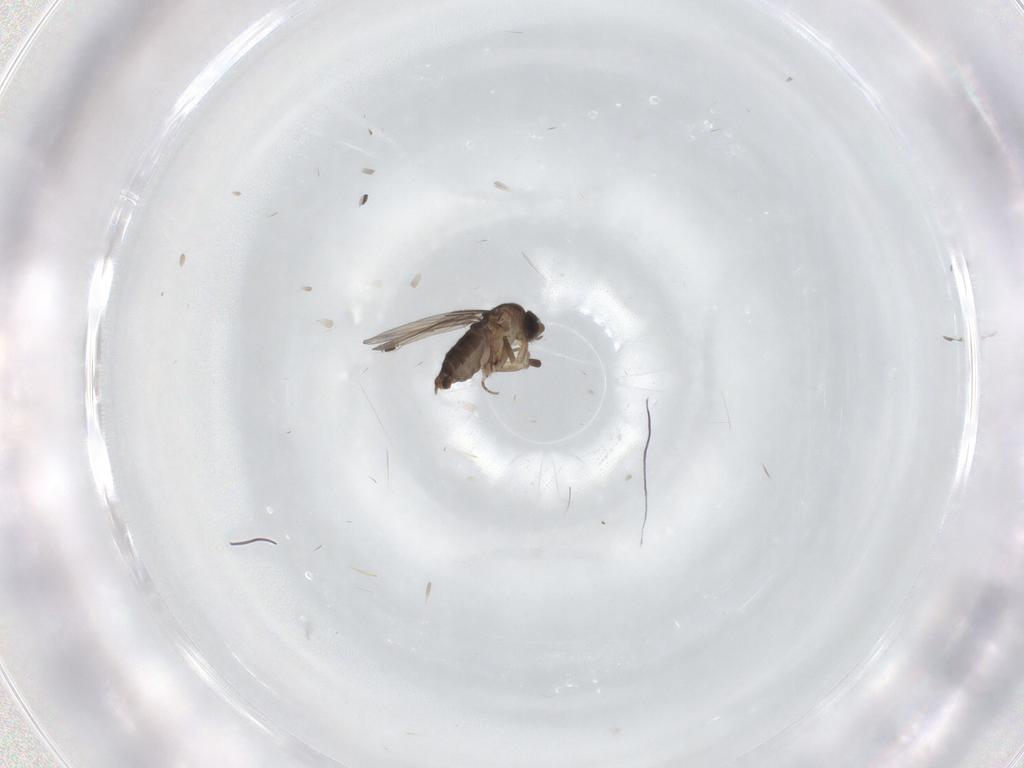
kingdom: Animalia
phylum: Arthropoda
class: Insecta
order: Diptera
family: Phoridae
